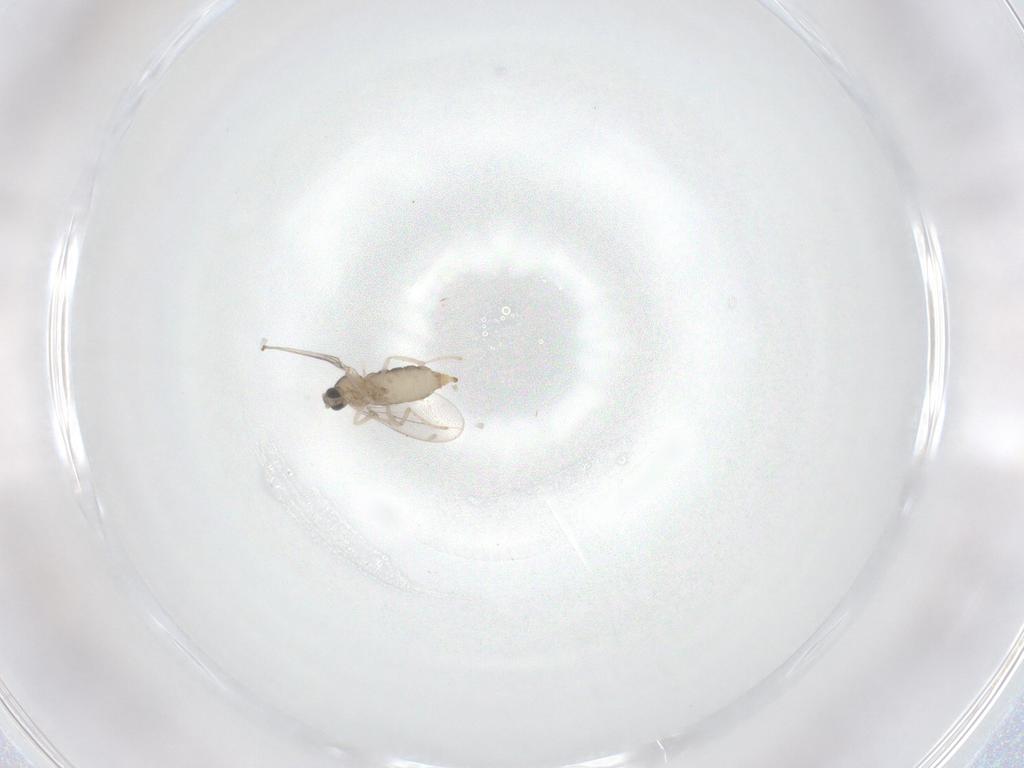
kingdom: Animalia
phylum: Arthropoda
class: Insecta
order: Diptera
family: Cecidomyiidae
